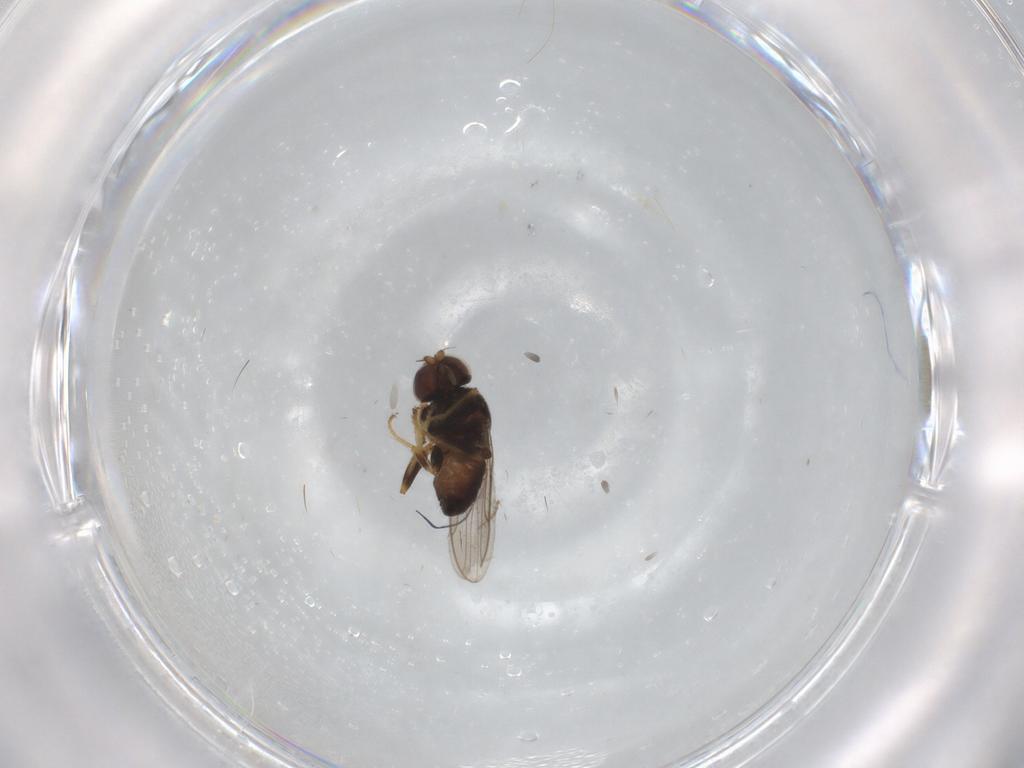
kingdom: Animalia
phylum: Arthropoda
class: Insecta
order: Diptera
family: Chloropidae
